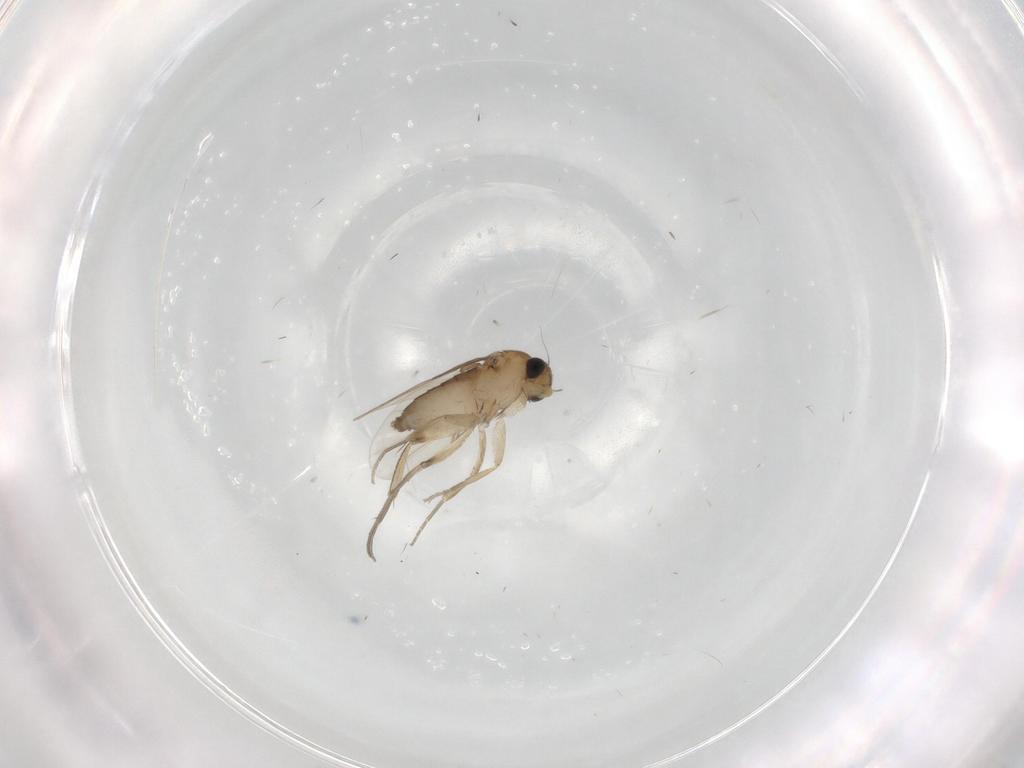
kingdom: Animalia
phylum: Arthropoda
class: Insecta
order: Diptera
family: Phoridae
